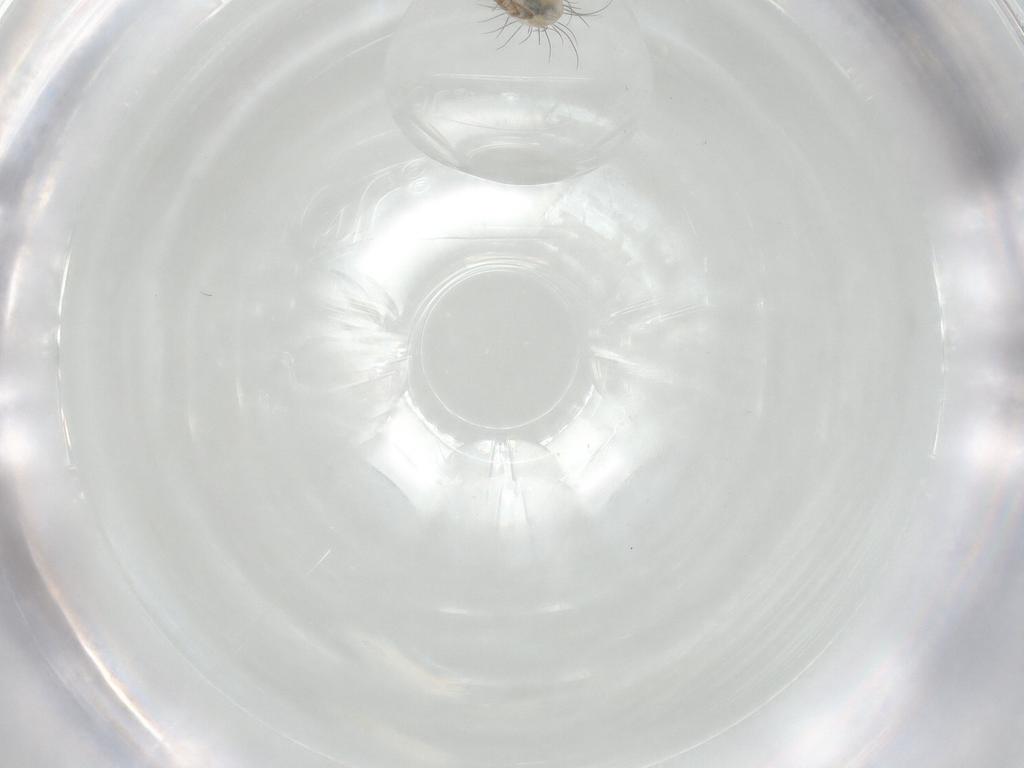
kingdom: Animalia
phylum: Arthropoda
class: Arachnida
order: Sarcoptiformes
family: Ceratozetidae
